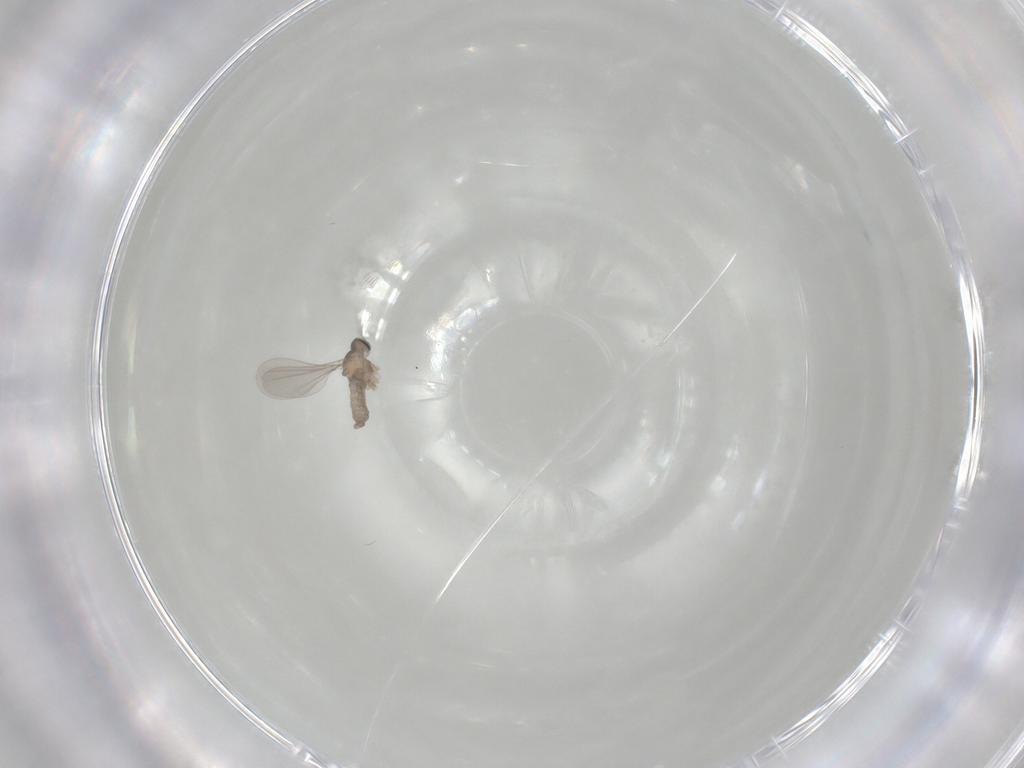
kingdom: Animalia
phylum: Arthropoda
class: Insecta
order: Diptera
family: Cecidomyiidae
